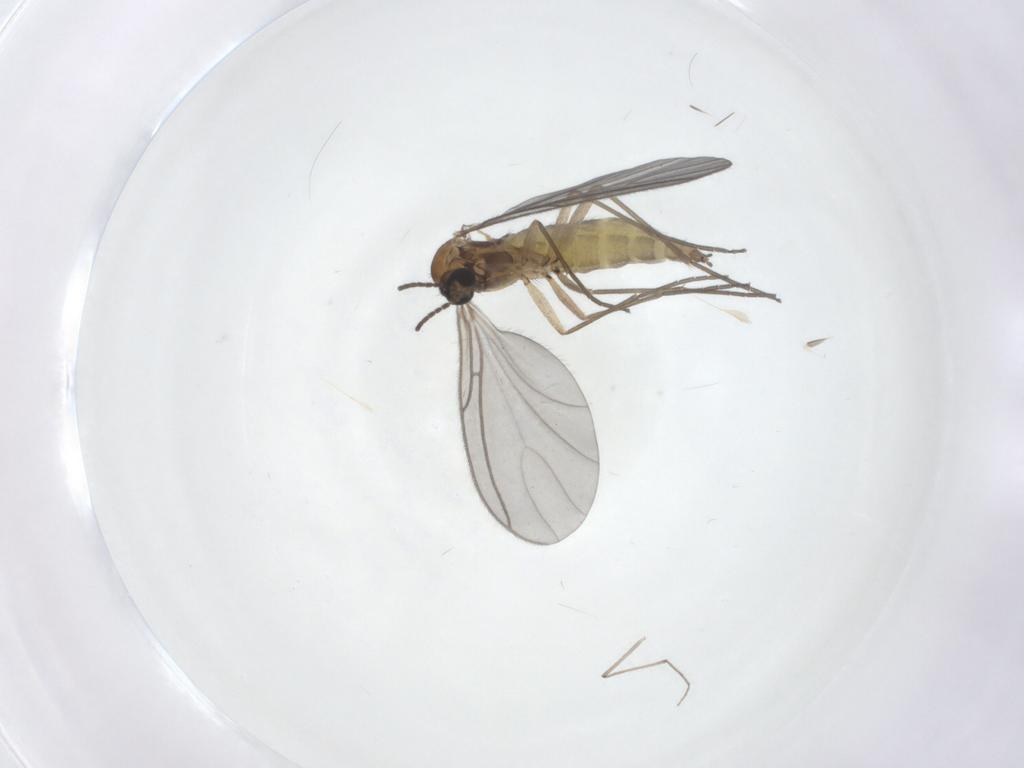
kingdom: Animalia
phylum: Arthropoda
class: Insecta
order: Diptera
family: Sciaridae
